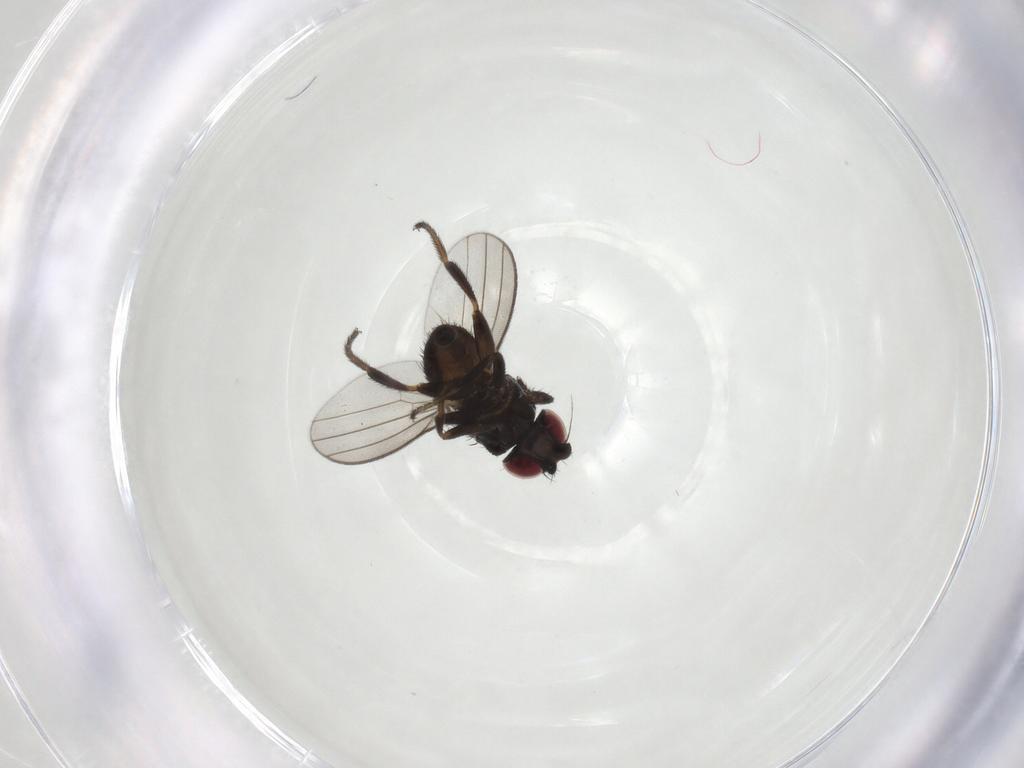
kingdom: Animalia
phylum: Arthropoda
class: Insecta
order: Diptera
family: Milichiidae
